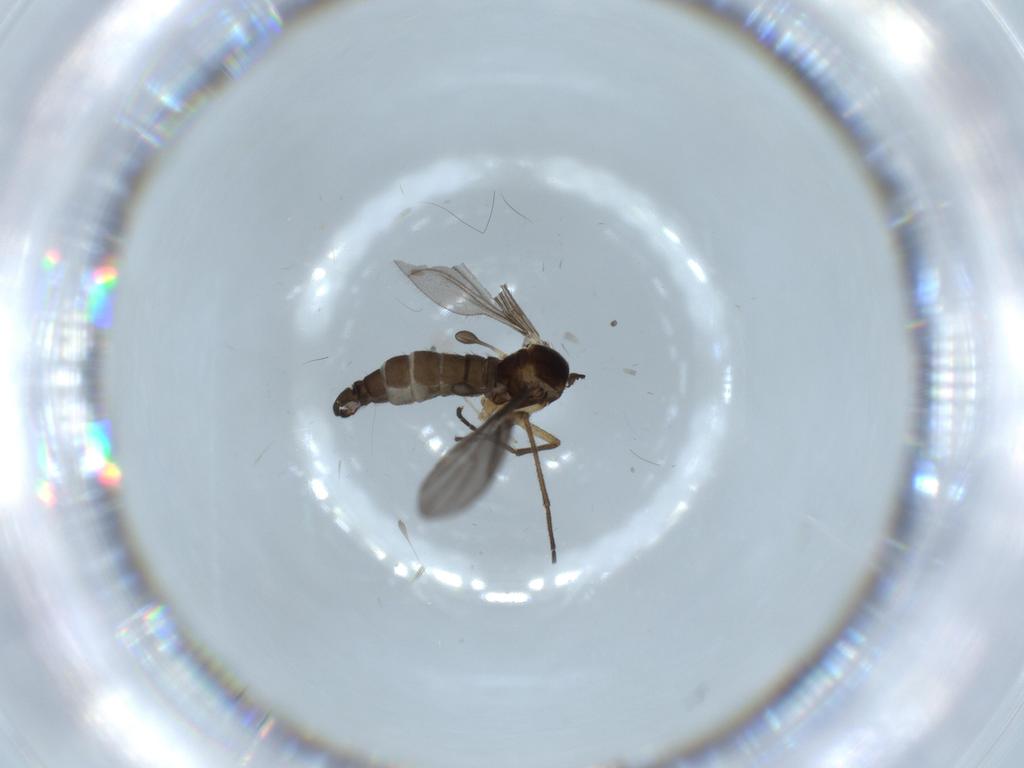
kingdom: Animalia
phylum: Arthropoda
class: Insecta
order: Diptera
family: Sciaridae
